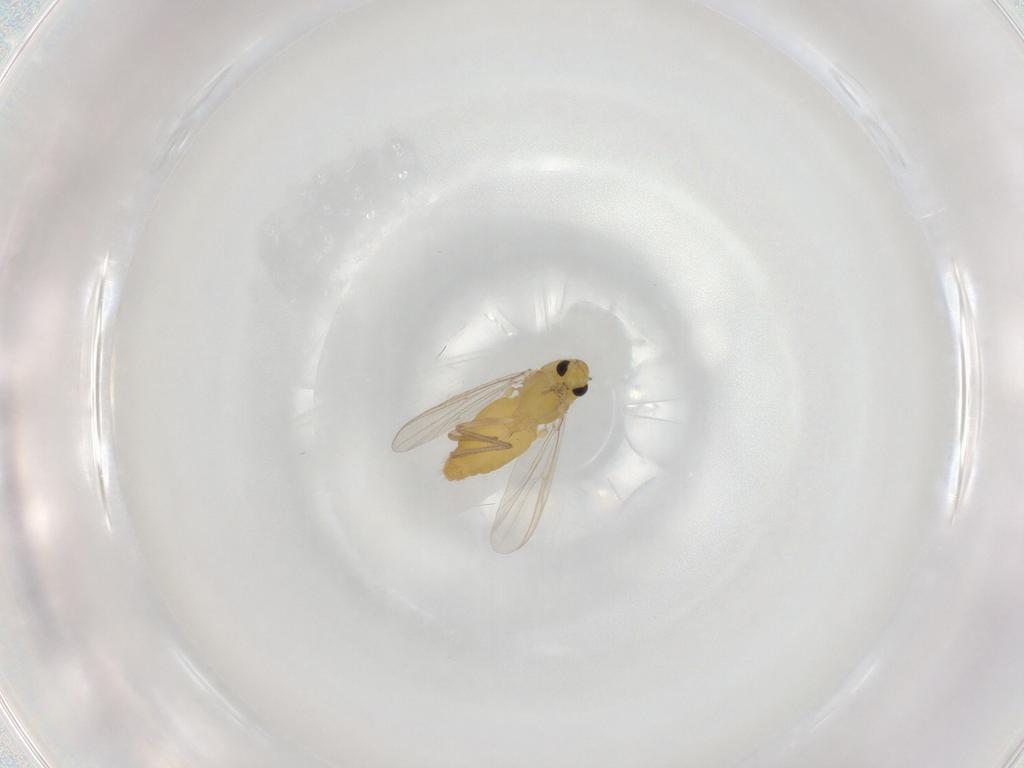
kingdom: Animalia
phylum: Arthropoda
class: Insecta
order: Diptera
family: Chironomidae
